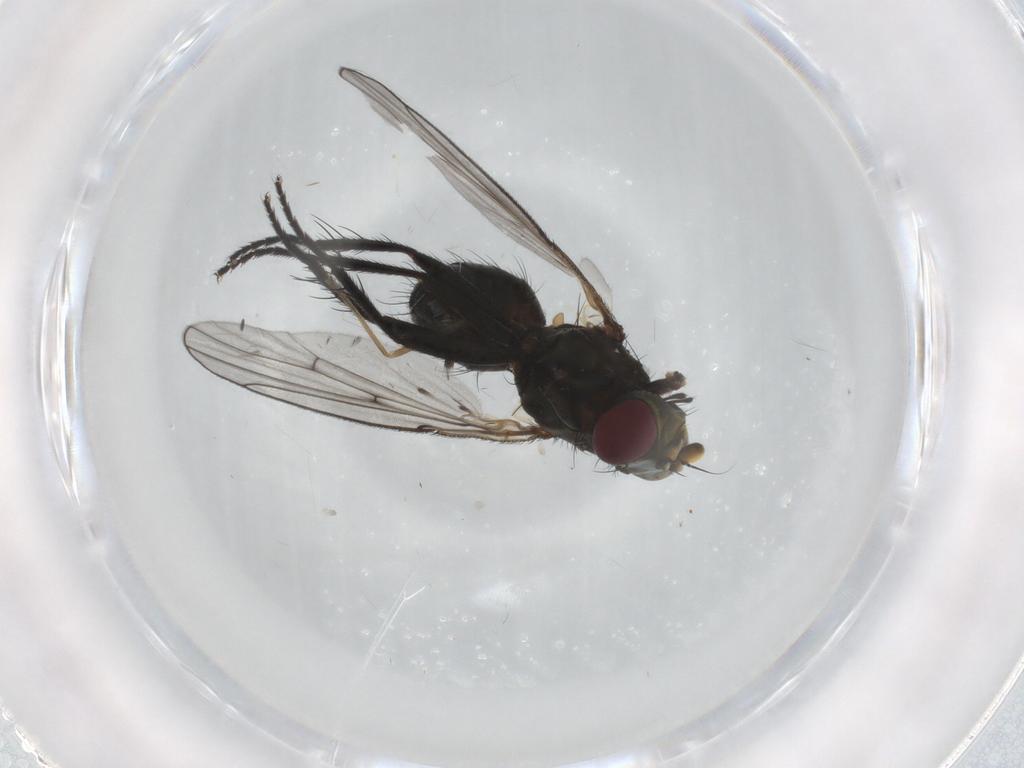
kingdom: Animalia
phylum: Arthropoda
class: Insecta
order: Diptera
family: Muscidae
